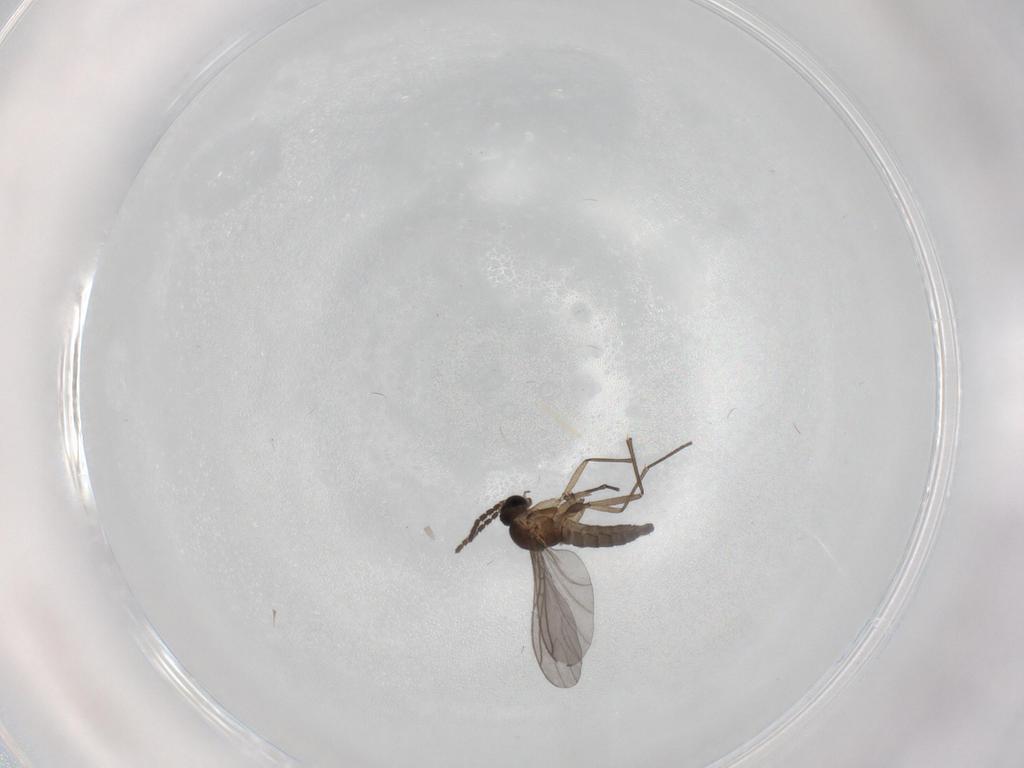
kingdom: Animalia
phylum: Arthropoda
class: Insecta
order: Diptera
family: Sciaridae
